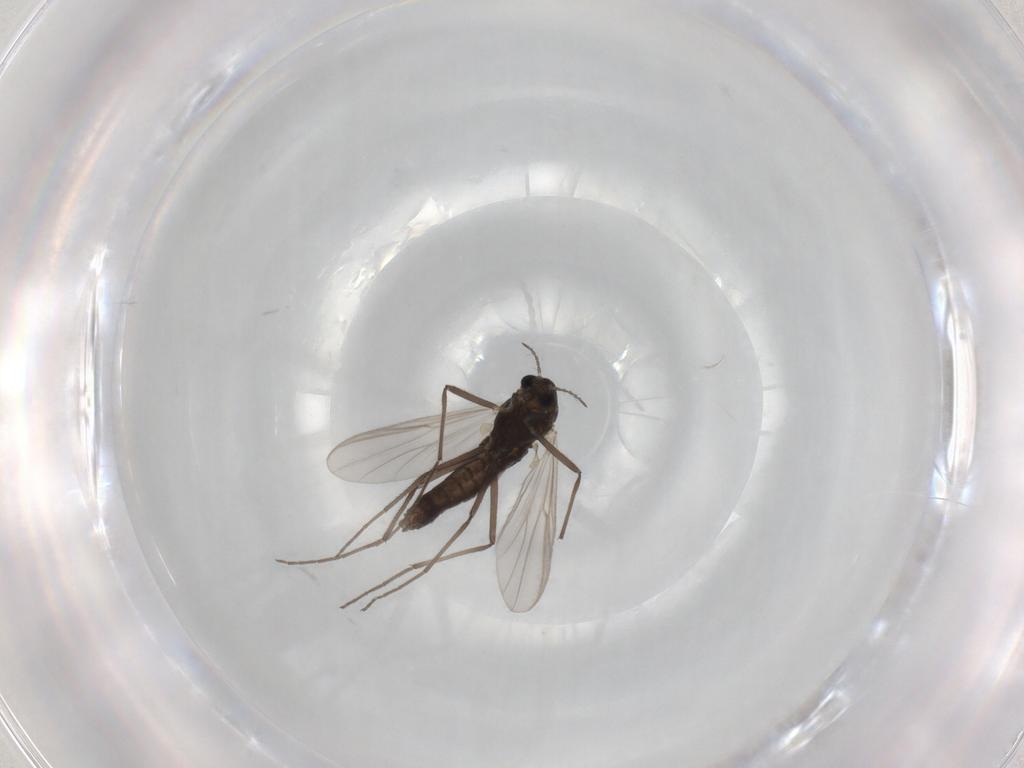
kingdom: Animalia
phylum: Arthropoda
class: Insecta
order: Diptera
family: Chironomidae
